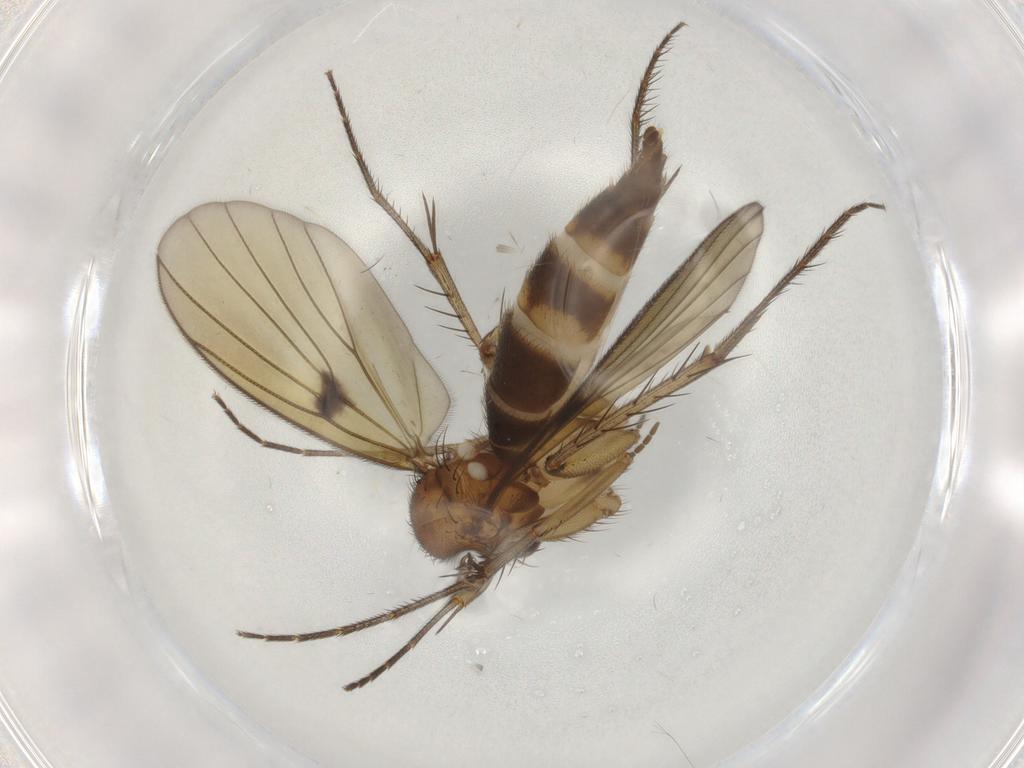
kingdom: Animalia
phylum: Arthropoda
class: Insecta
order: Diptera
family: Mycetophilidae
